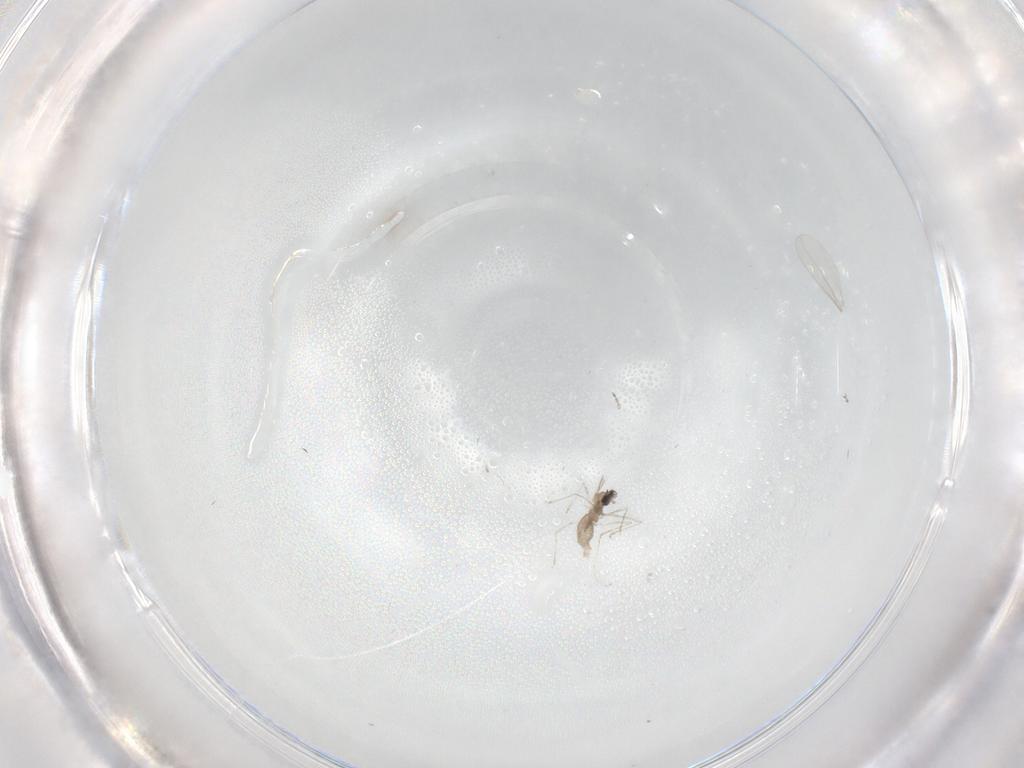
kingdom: Animalia
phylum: Arthropoda
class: Insecta
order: Diptera
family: Cecidomyiidae
